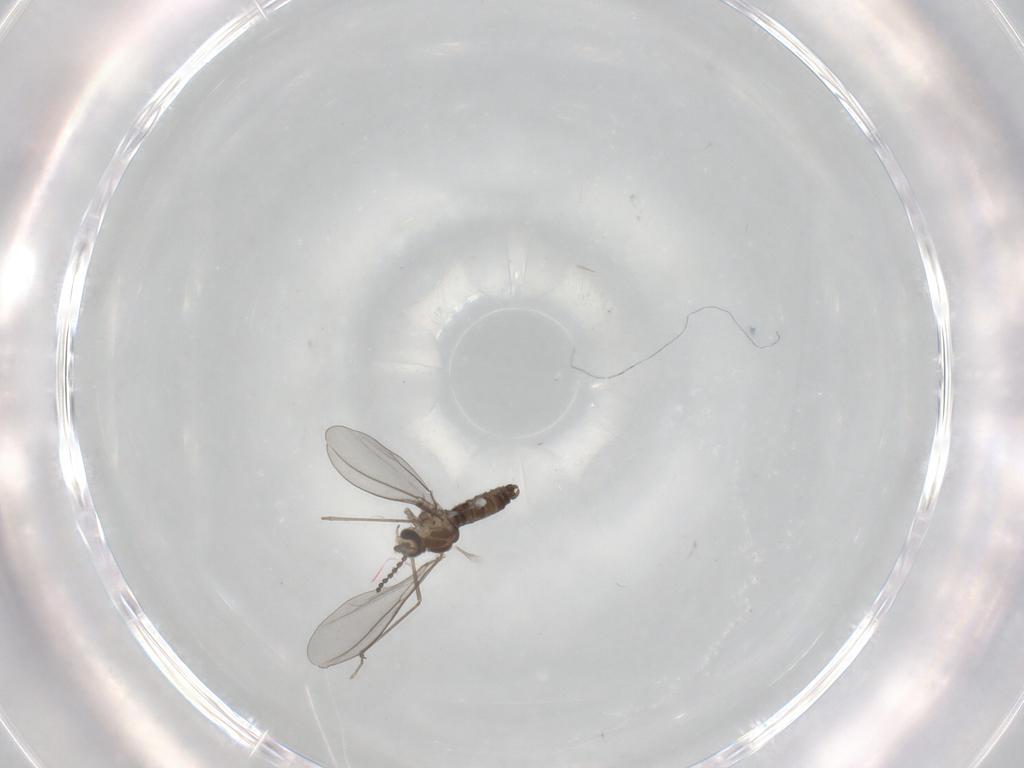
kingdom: Animalia
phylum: Arthropoda
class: Insecta
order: Diptera
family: Cecidomyiidae
